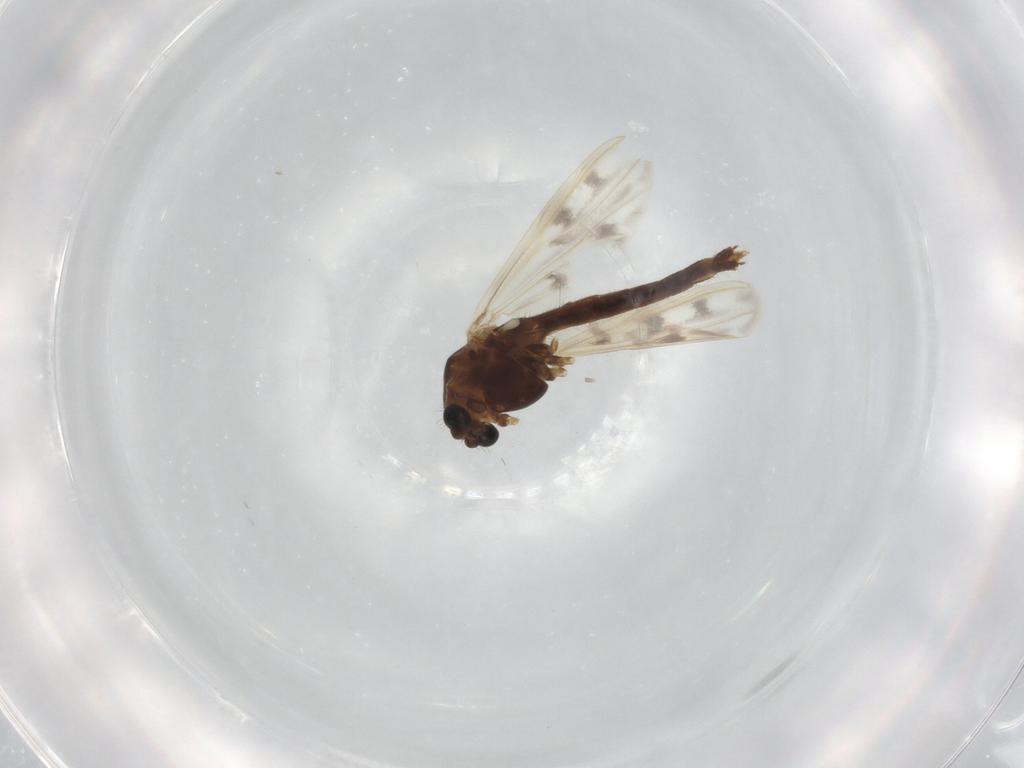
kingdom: Animalia
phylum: Arthropoda
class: Insecta
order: Diptera
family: Chironomidae
